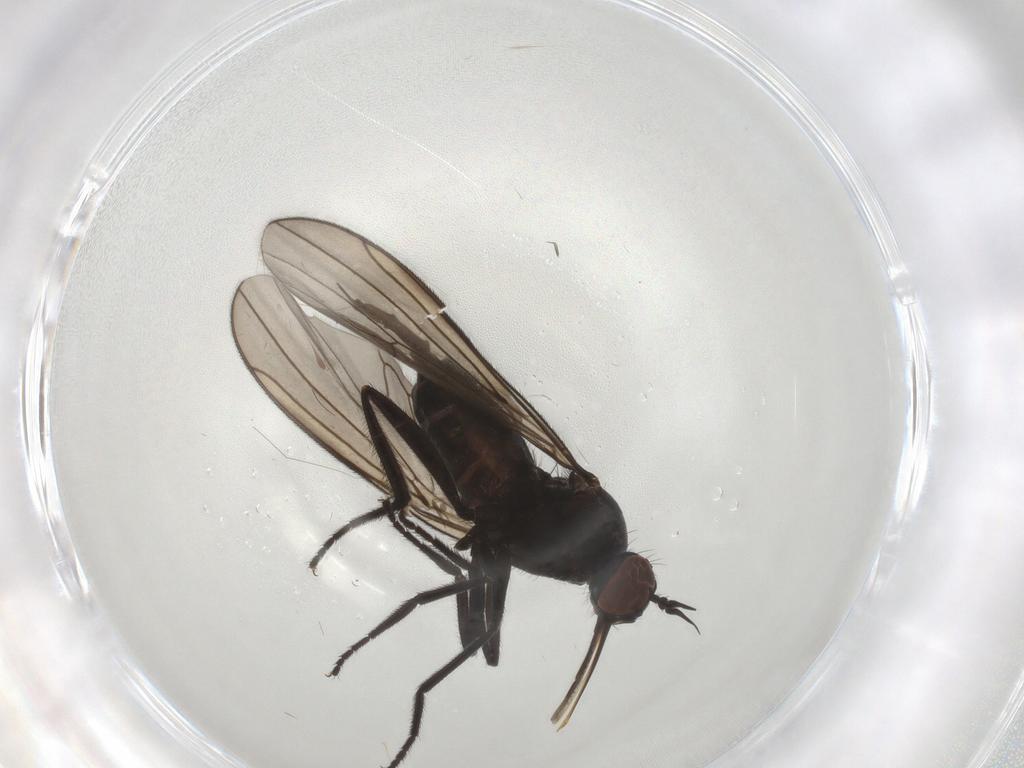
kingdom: Animalia
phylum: Arthropoda
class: Insecta
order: Diptera
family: Empididae
